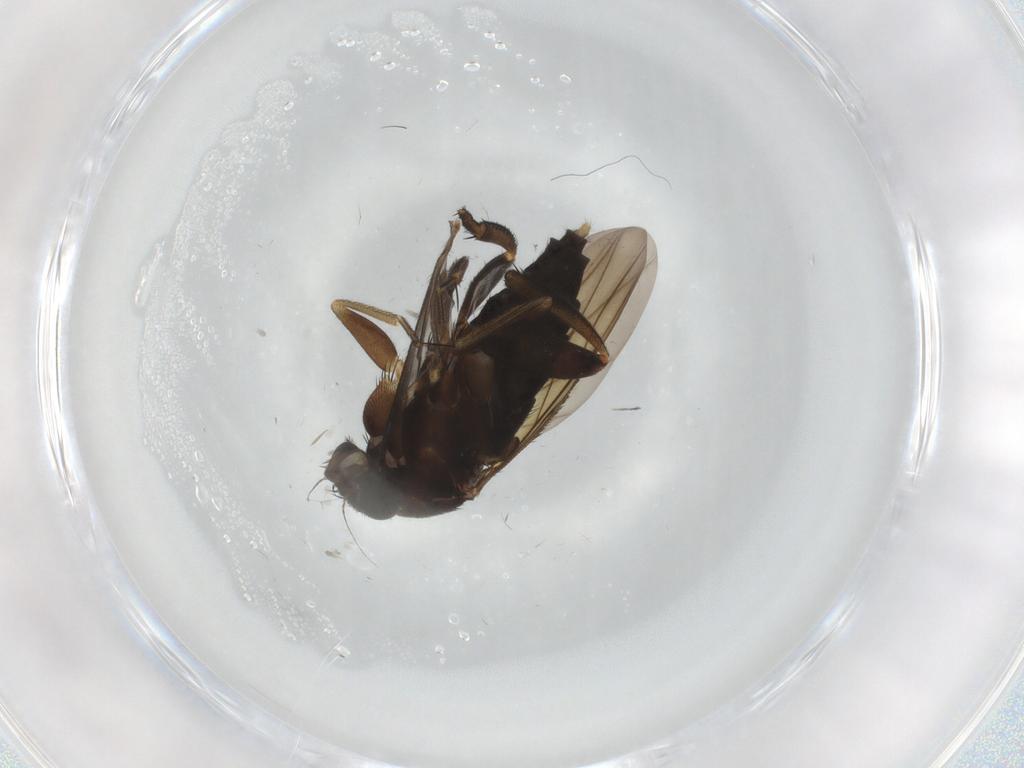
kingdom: Animalia
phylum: Arthropoda
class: Insecta
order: Diptera
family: Phoridae
